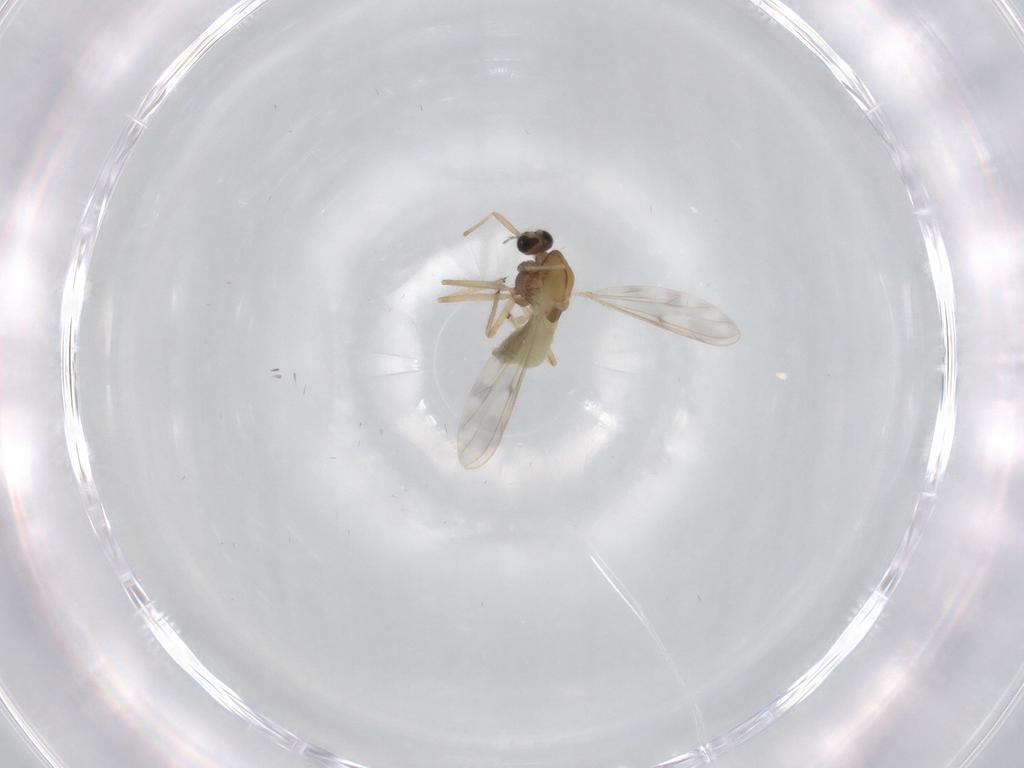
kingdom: Animalia
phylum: Arthropoda
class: Insecta
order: Diptera
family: Chironomidae
